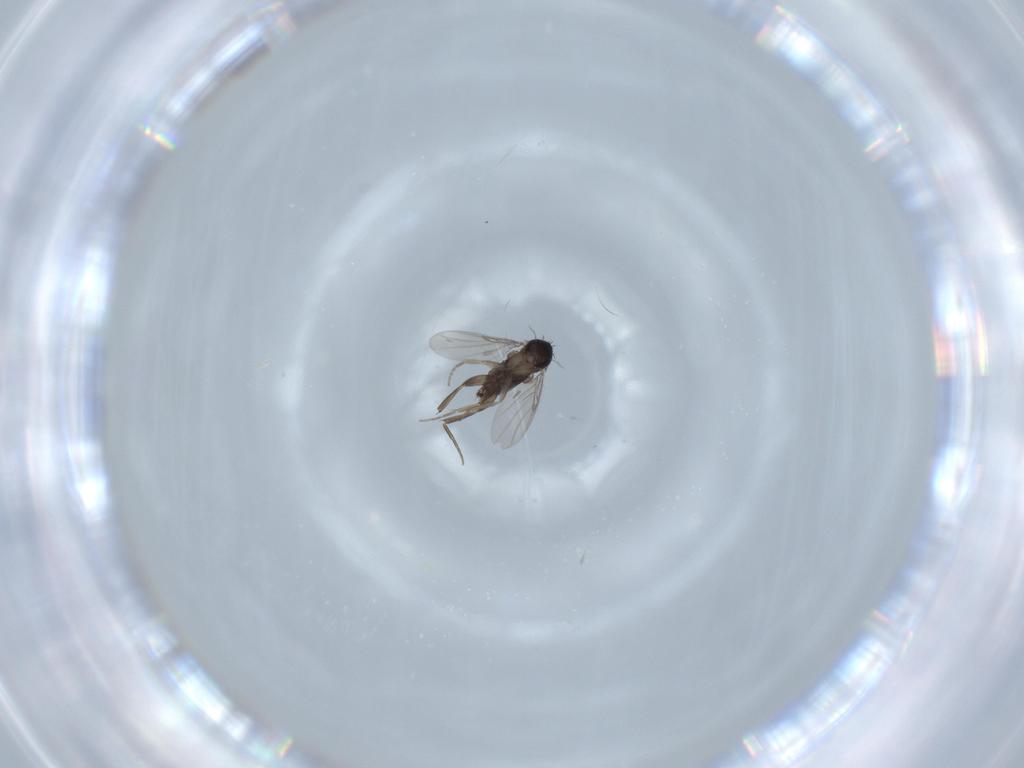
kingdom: Animalia
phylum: Arthropoda
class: Insecta
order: Diptera
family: Phoridae
